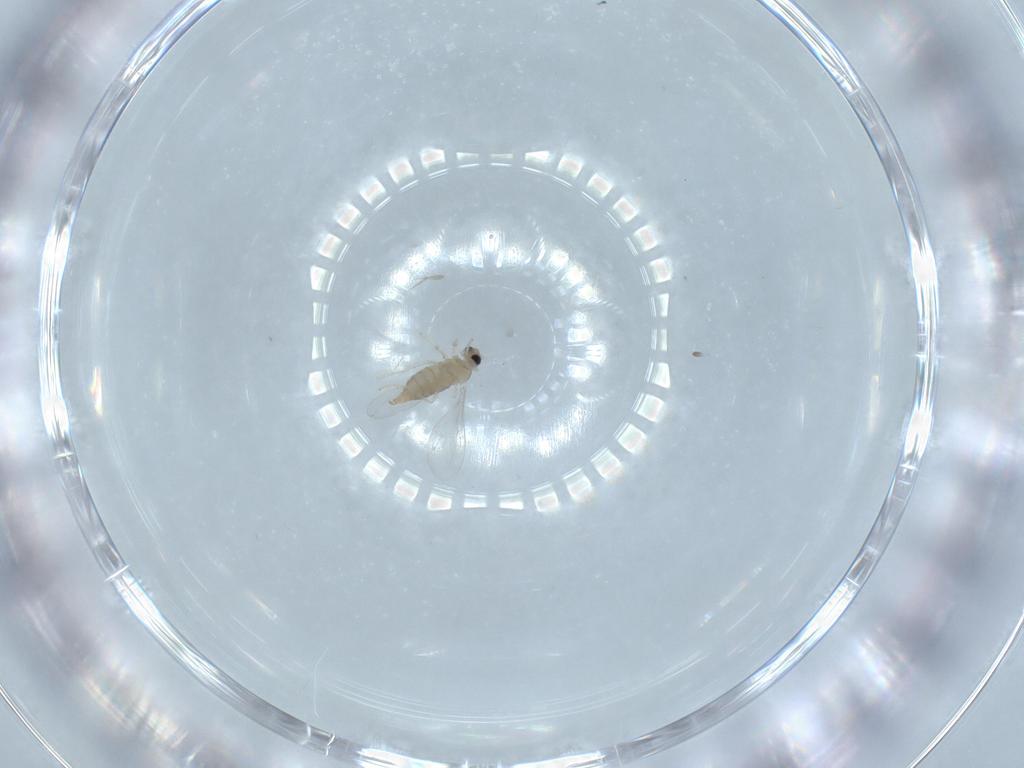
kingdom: Animalia
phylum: Arthropoda
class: Insecta
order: Diptera
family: Cecidomyiidae
